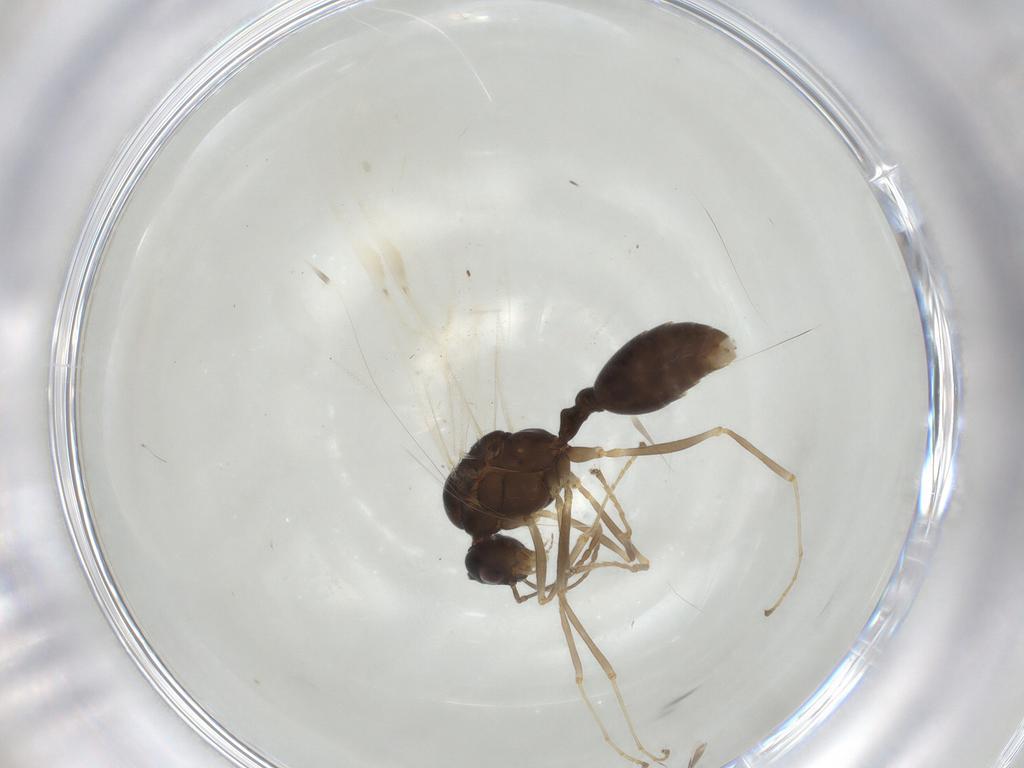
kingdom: Animalia
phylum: Arthropoda
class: Insecta
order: Hymenoptera
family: Formicidae
